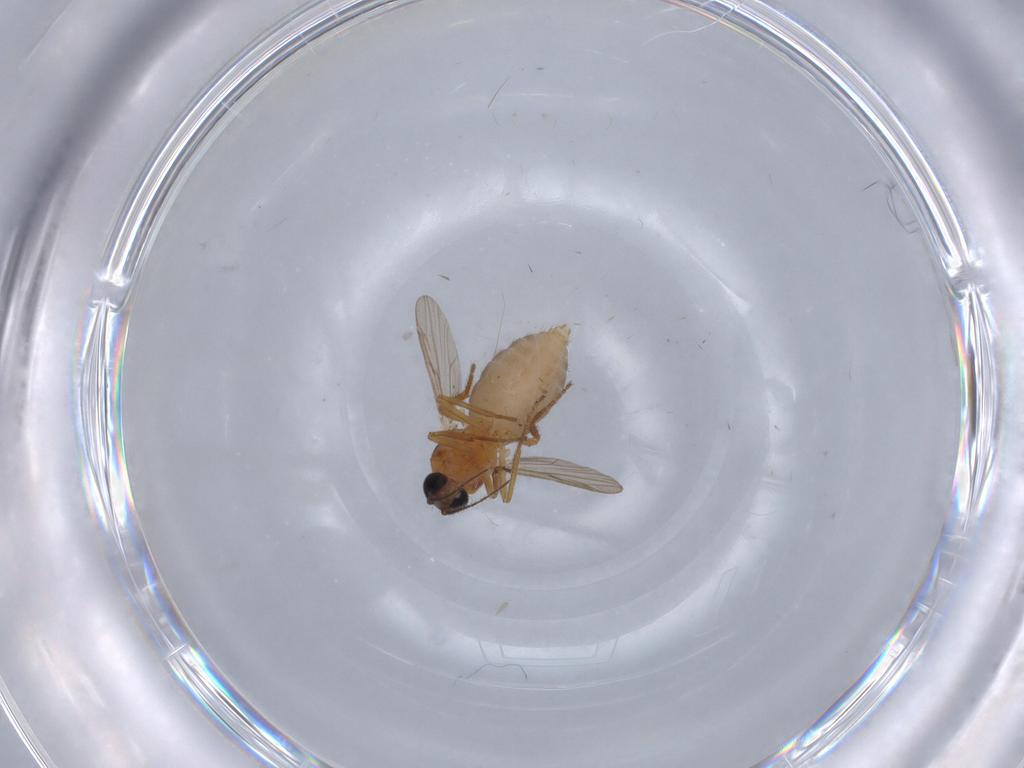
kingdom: Animalia
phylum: Arthropoda
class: Insecta
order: Diptera
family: Ceratopogonidae
